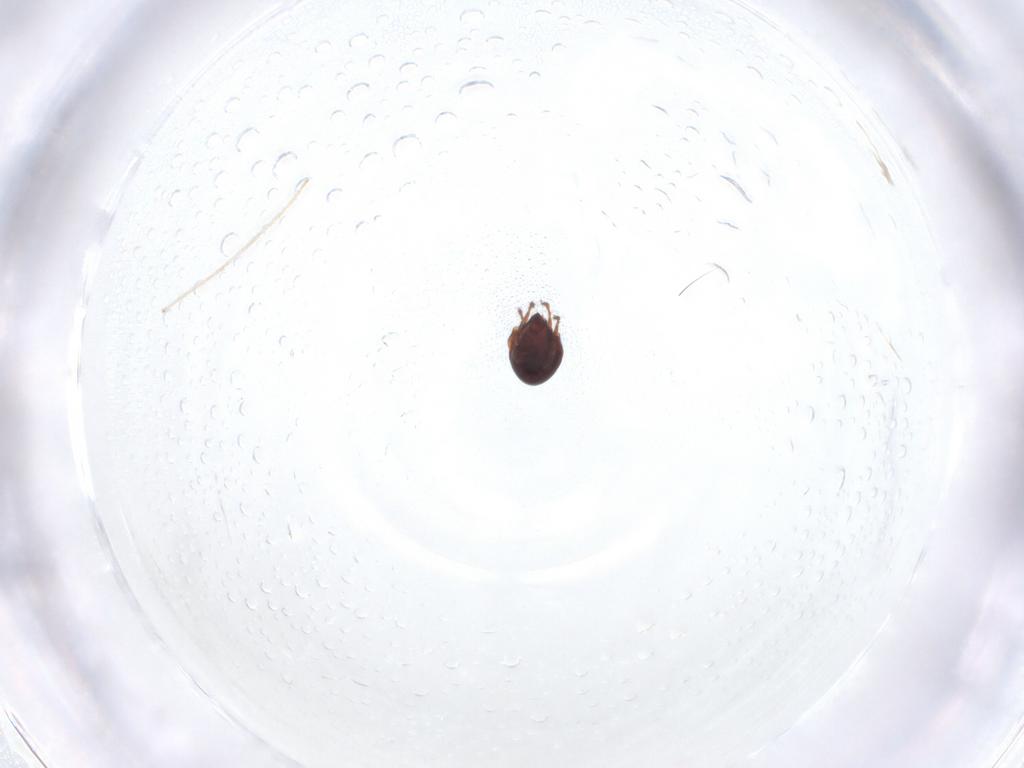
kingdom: Animalia
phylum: Arthropoda
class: Arachnida
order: Sarcoptiformes
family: Ceratozetidae
